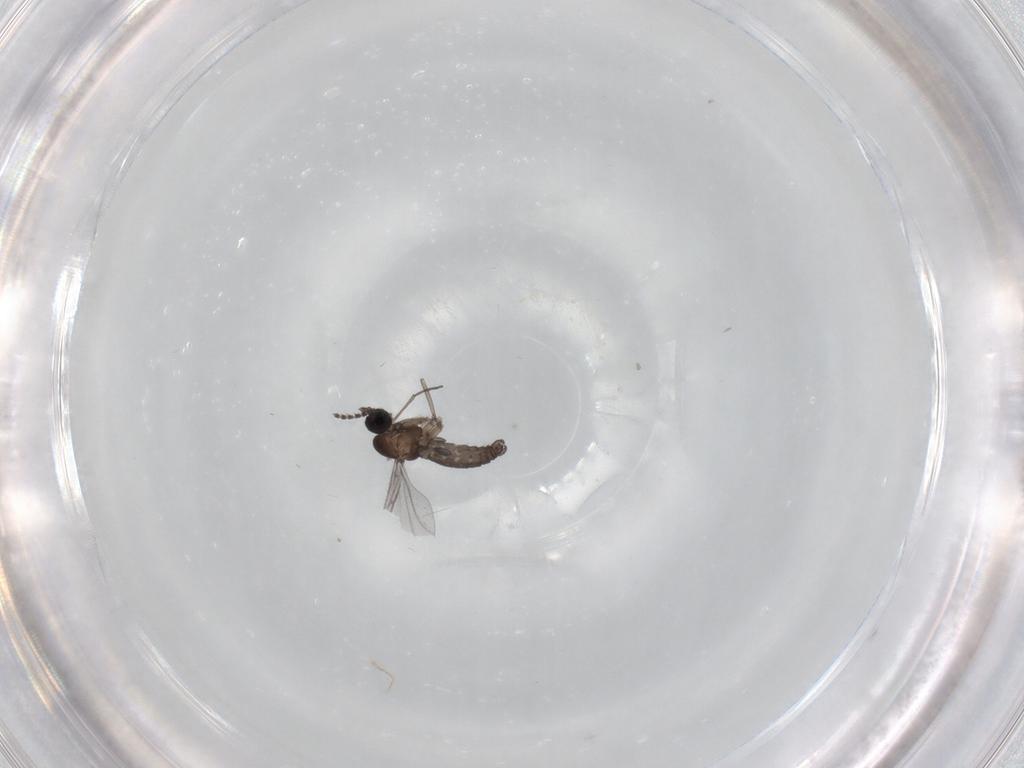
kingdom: Animalia
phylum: Arthropoda
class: Insecta
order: Diptera
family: Sciaridae
